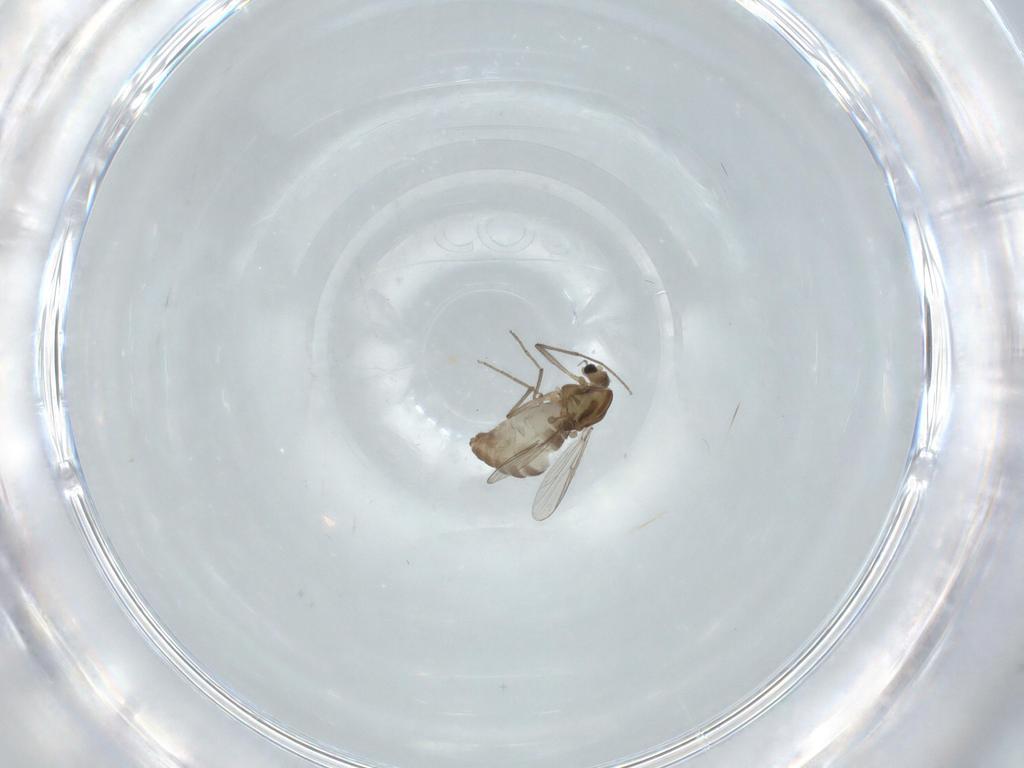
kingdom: Animalia
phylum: Arthropoda
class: Insecta
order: Diptera
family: Chironomidae
